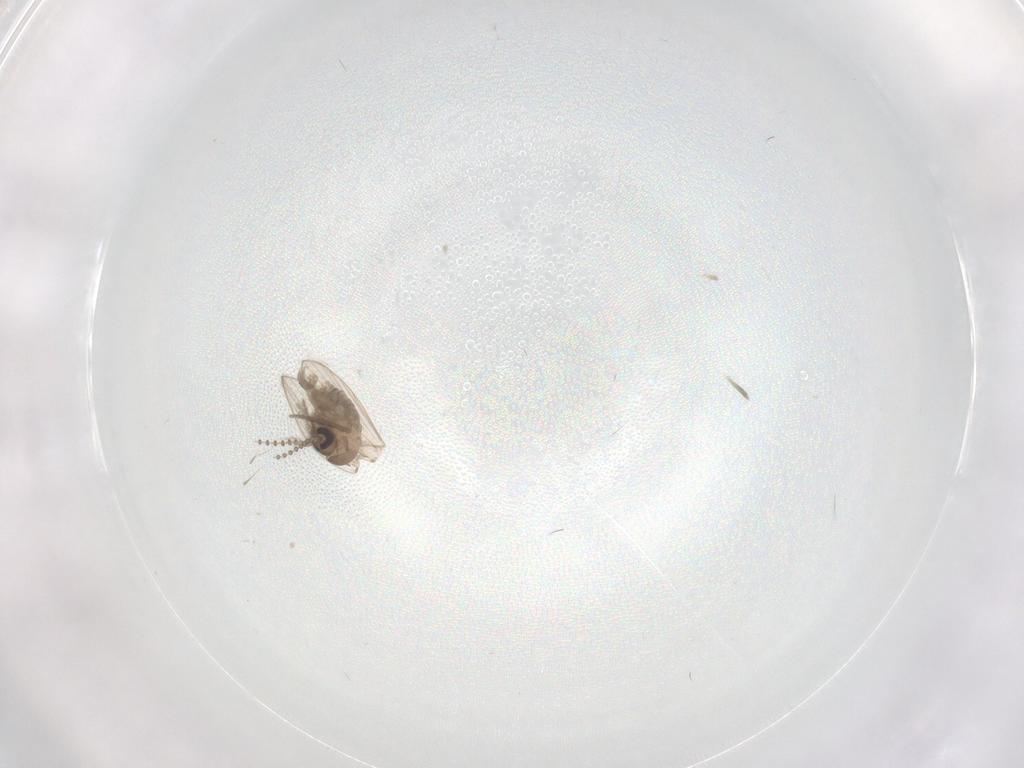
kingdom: Animalia
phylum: Arthropoda
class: Insecta
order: Diptera
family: Psychodidae
